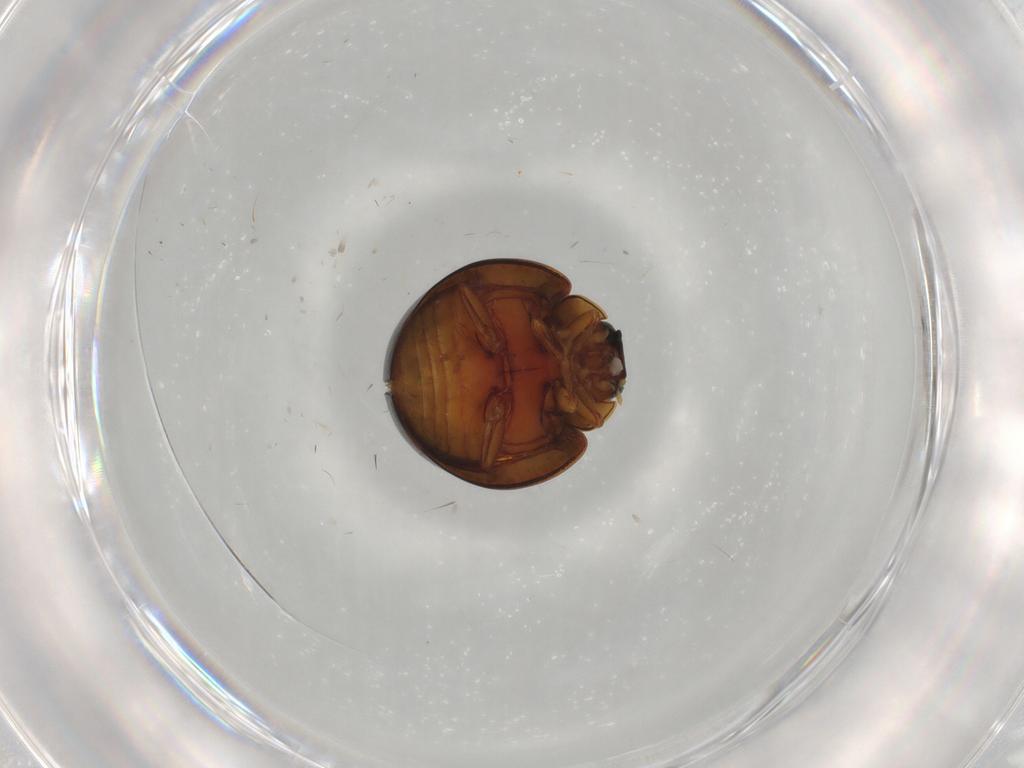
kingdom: Animalia
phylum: Arthropoda
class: Insecta
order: Coleoptera
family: Coccinellidae
